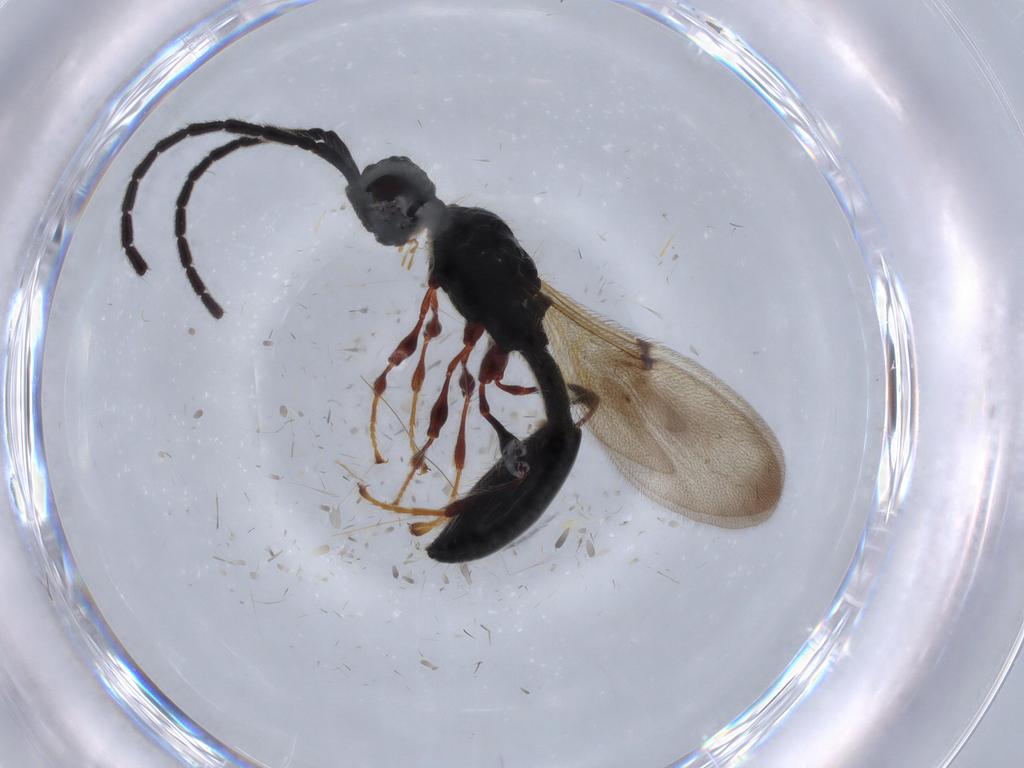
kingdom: Animalia
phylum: Arthropoda
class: Insecta
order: Hymenoptera
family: Diapriidae
